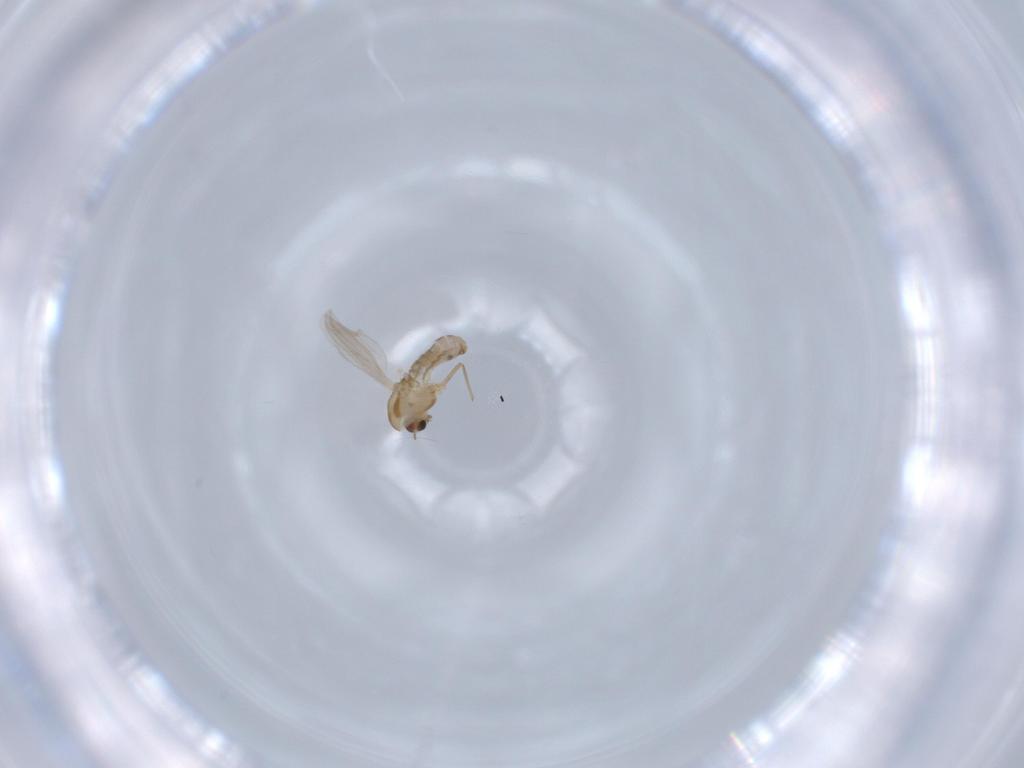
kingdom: Animalia
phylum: Arthropoda
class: Insecta
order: Diptera
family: Chironomidae
